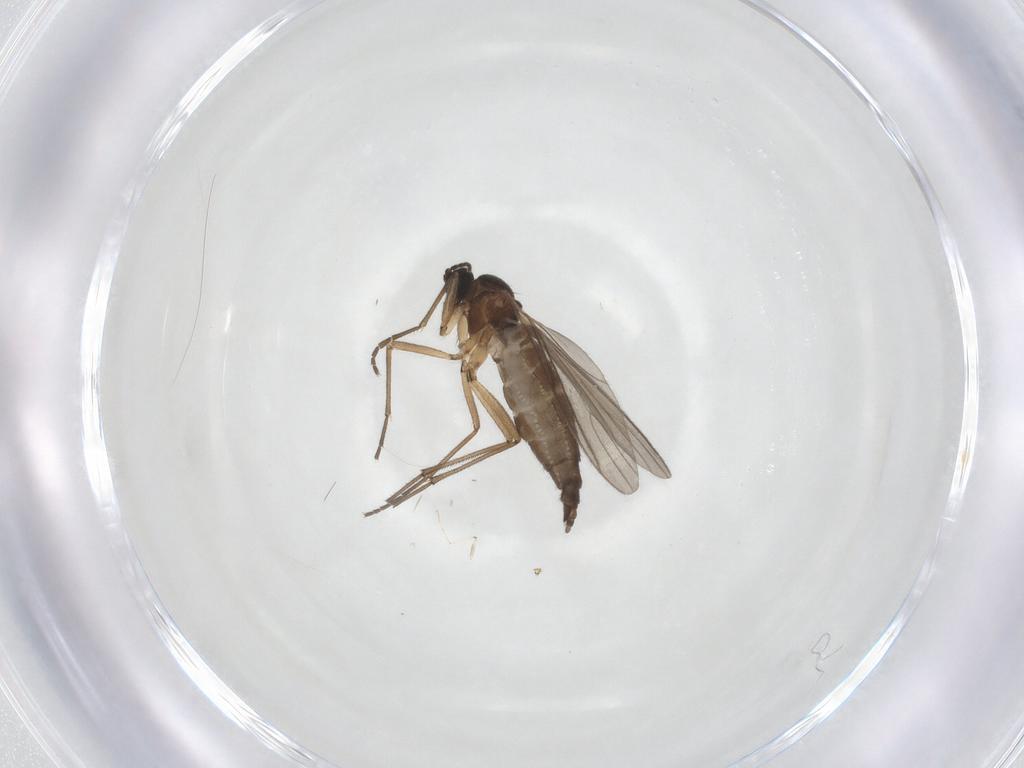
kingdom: Animalia
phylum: Arthropoda
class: Insecta
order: Diptera
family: Sciaridae
